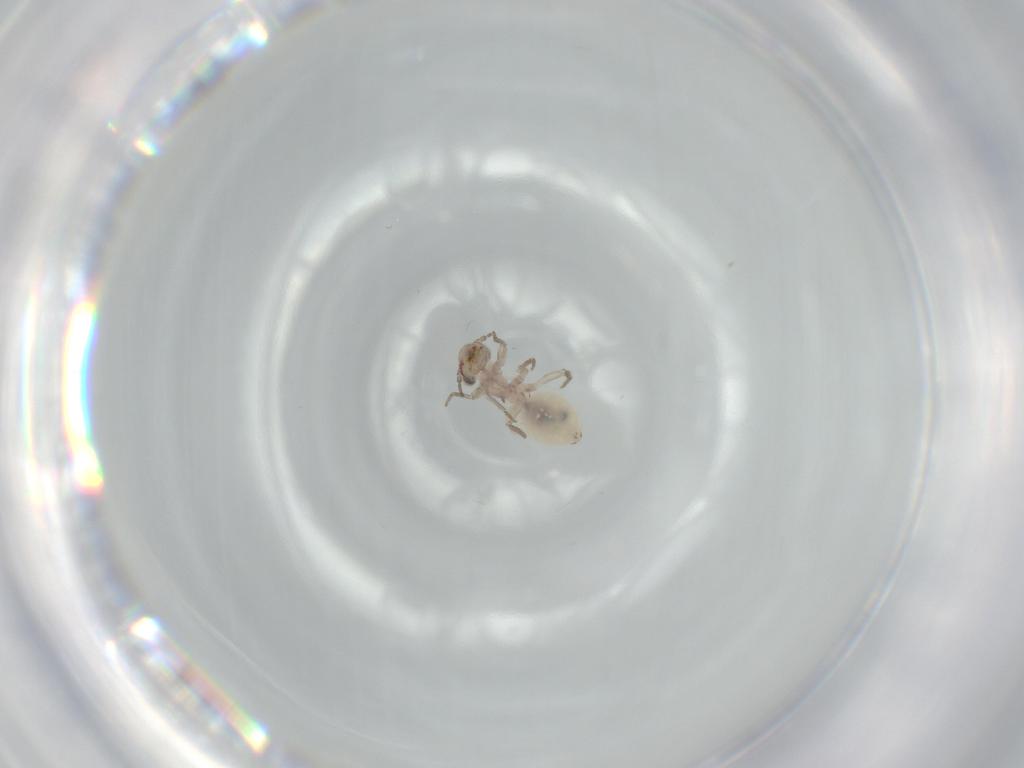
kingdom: Animalia
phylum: Arthropoda
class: Insecta
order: Psocodea
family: Ectopsocidae
